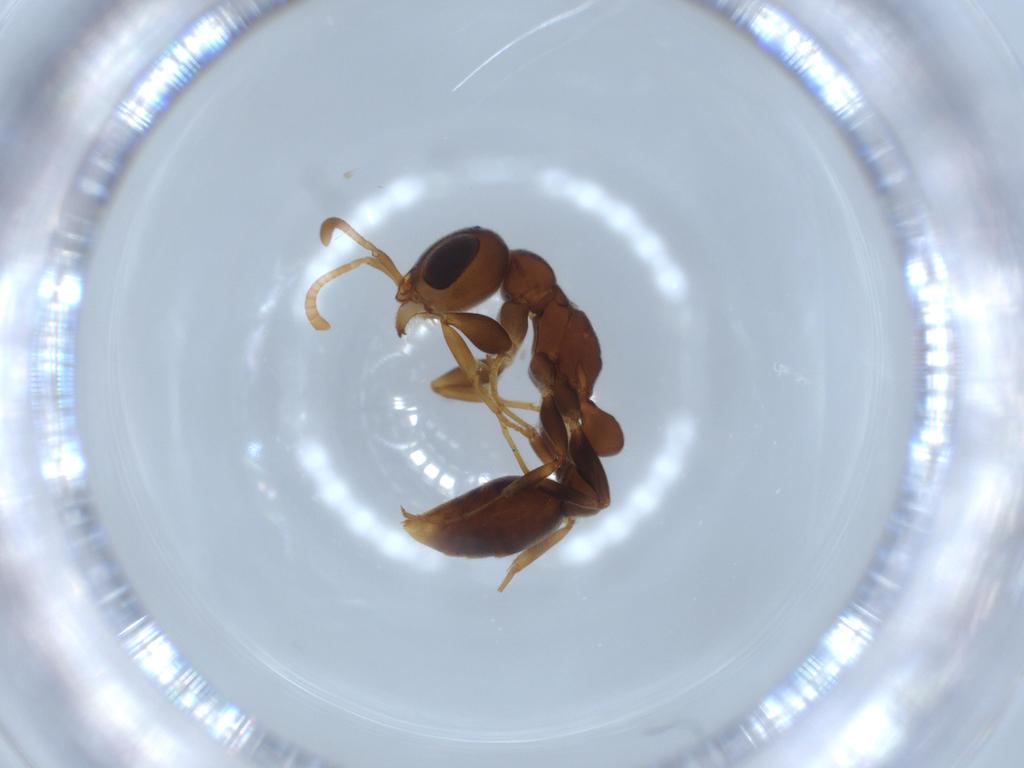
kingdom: Animalia
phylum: Arthropoda
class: Insecta
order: Hymenoptera
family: Formicidae
